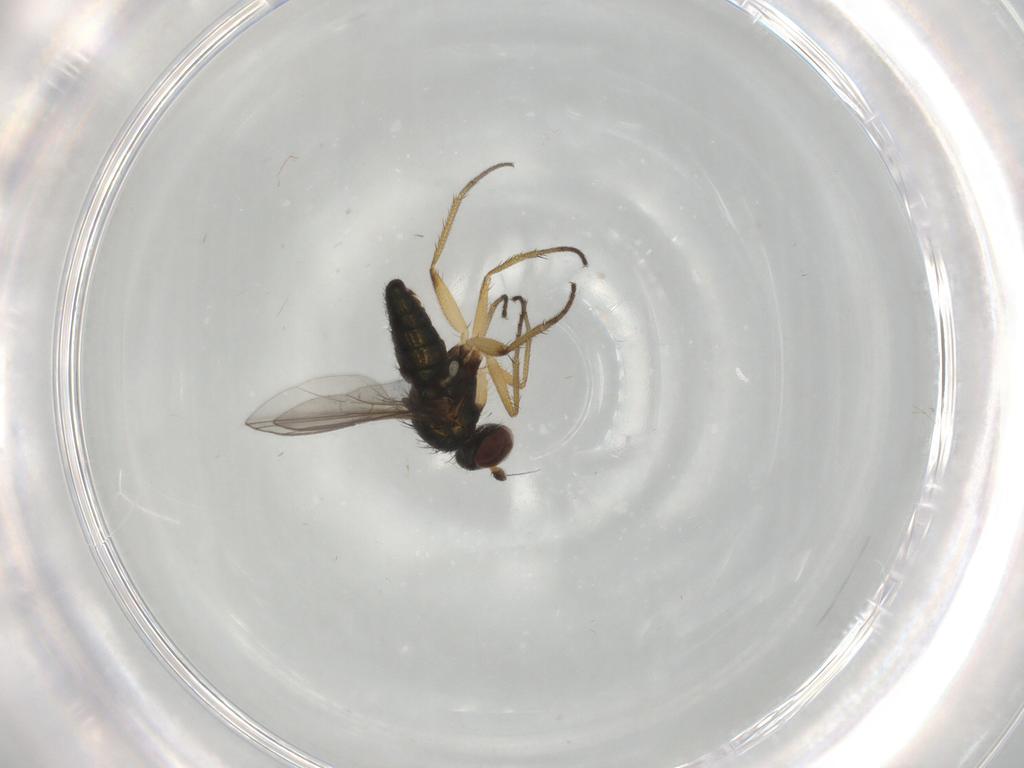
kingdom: Animalia
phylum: Arthropoda
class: Insecta
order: Diptera
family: Dolichopodidae
